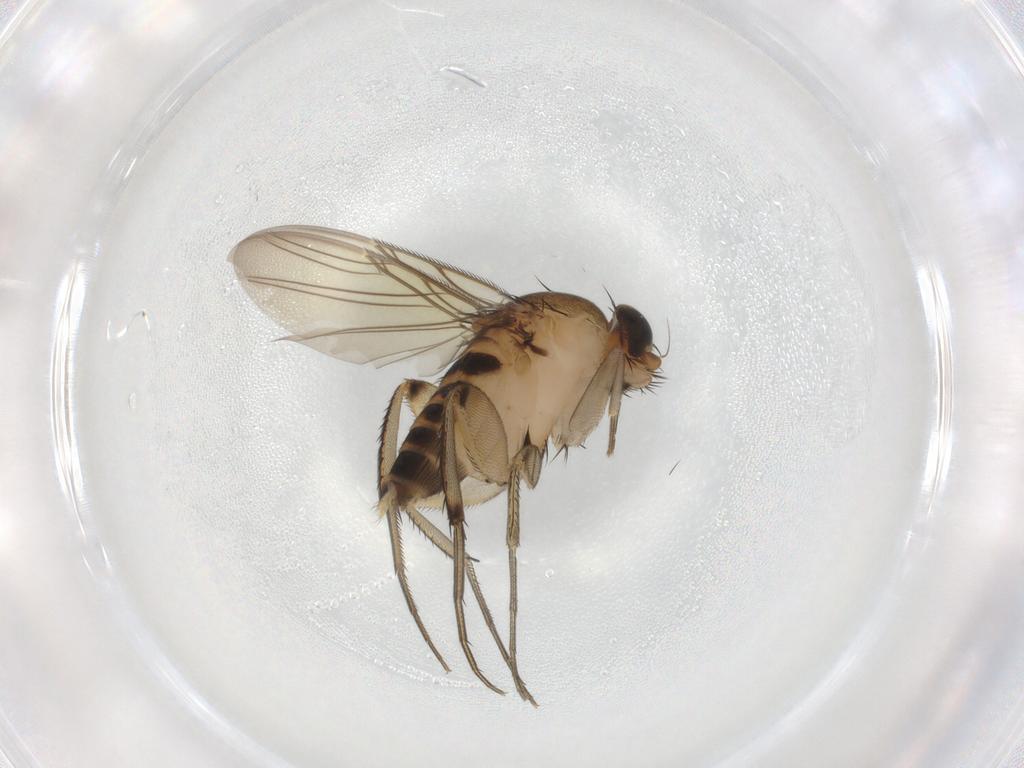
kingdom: Animalia
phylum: Arthropoda
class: Insecta
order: Diptera
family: Phoridae
